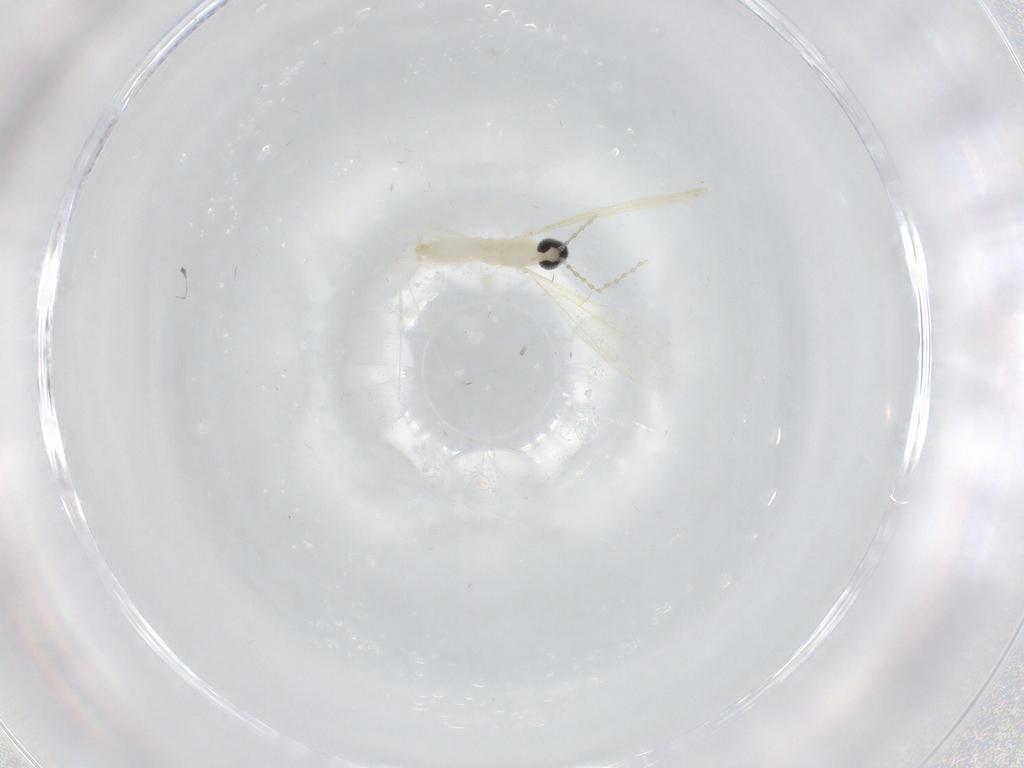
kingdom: Animalia
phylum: Arthropoda
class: Insecta
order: Diptera
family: Cecidomyiidae
